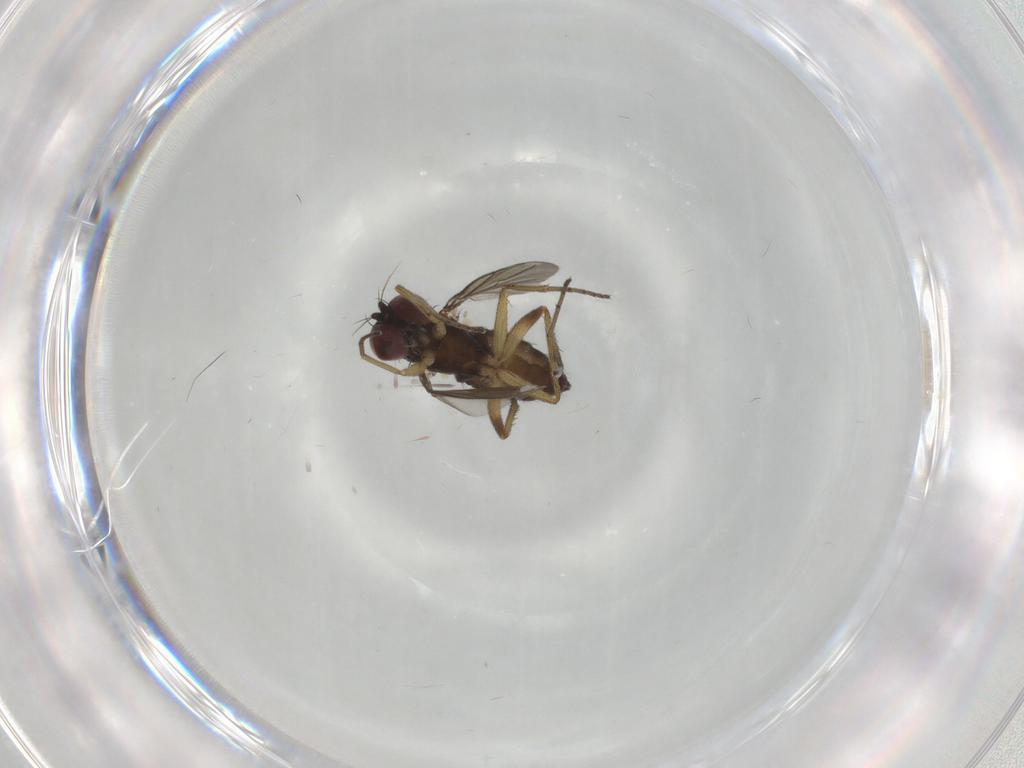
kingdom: Animalia
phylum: Arthropoda
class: Insecta
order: Diptera
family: Dolichopodidae
